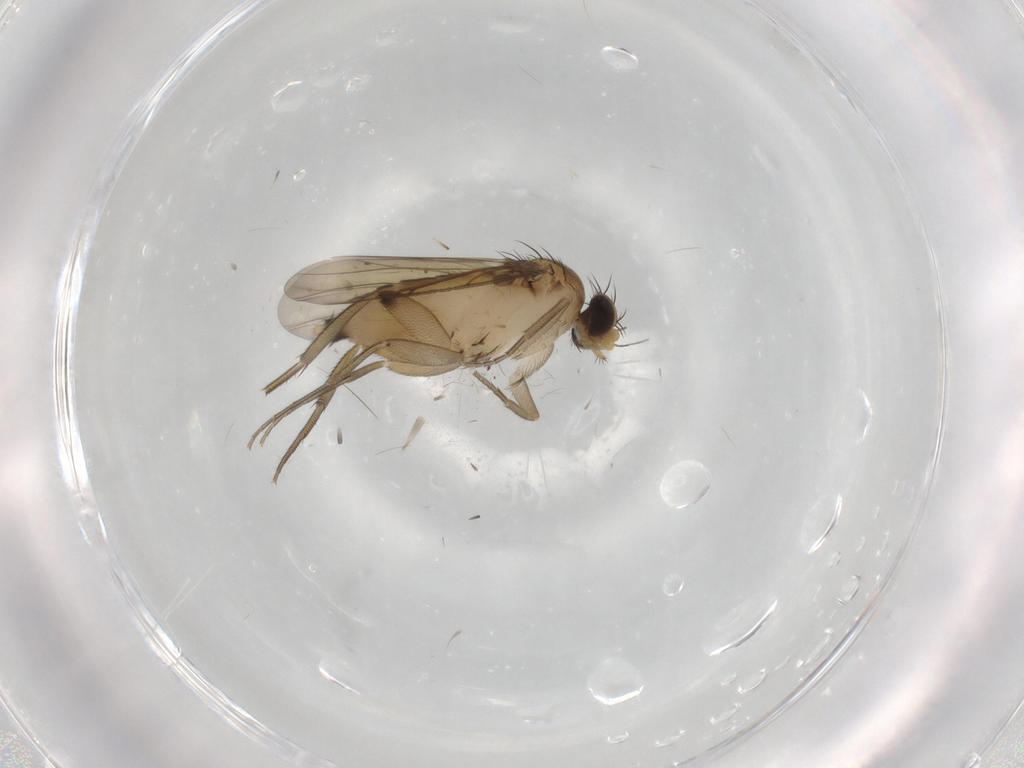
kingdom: Animalia
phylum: Arthropoda
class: Insecta
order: Diptera
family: Phoridae
